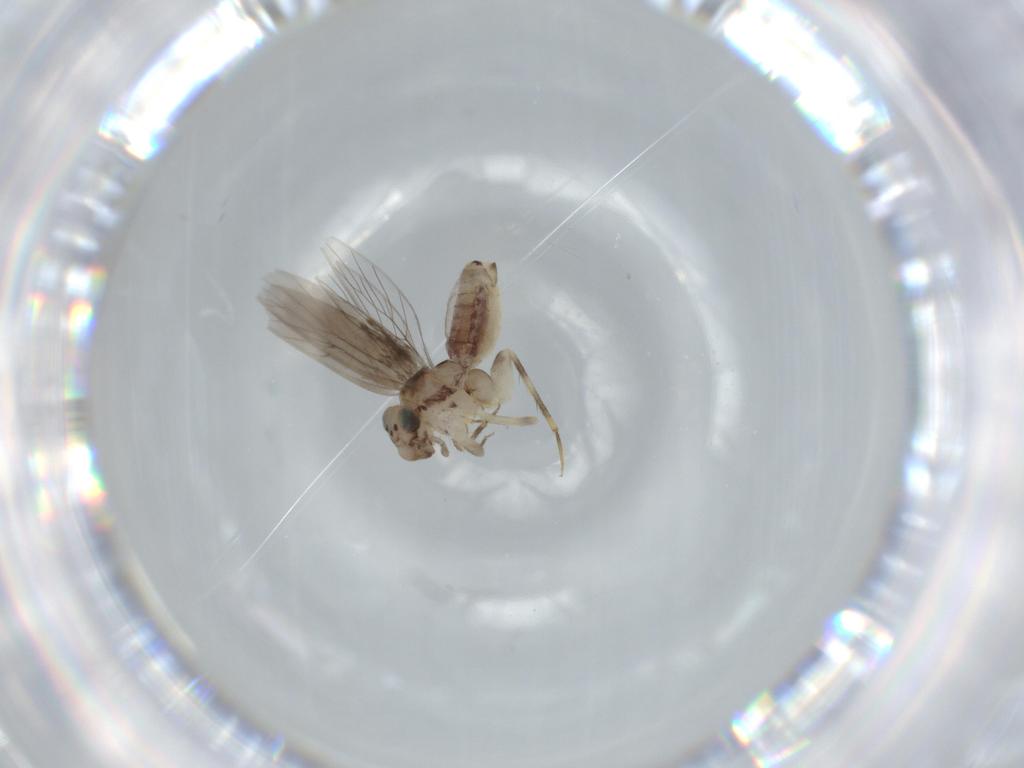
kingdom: Animalia
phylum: Arthropoda
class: Insecta
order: Psocodea
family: Lepidopsocidae
